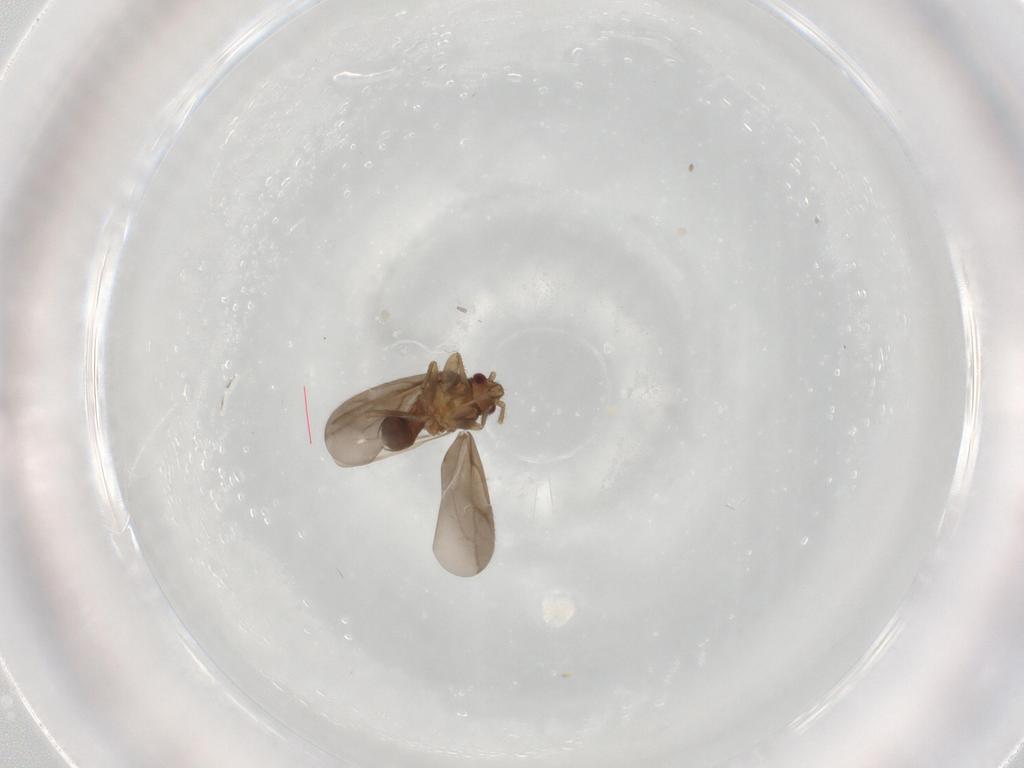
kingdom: Animalia
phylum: Arthropoda
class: Insecta
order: Hemiptera
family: Ceratocombidae
